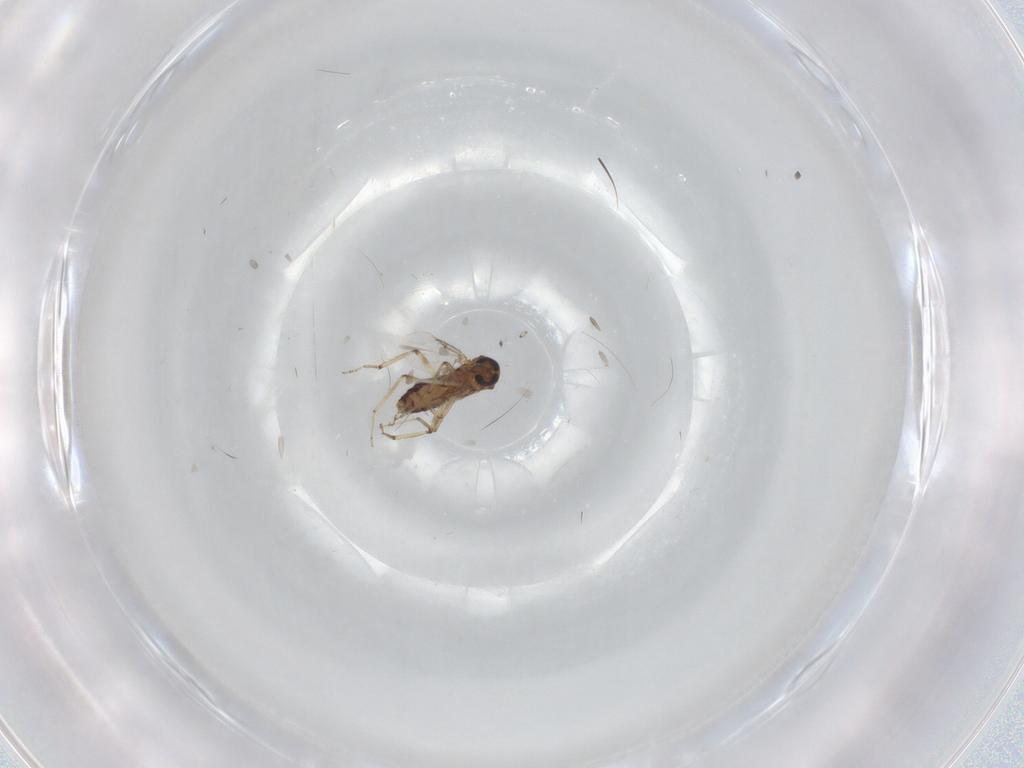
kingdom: Animalia
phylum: Arthropoda
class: Insecta
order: Diptera
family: Ceratopogonidae
